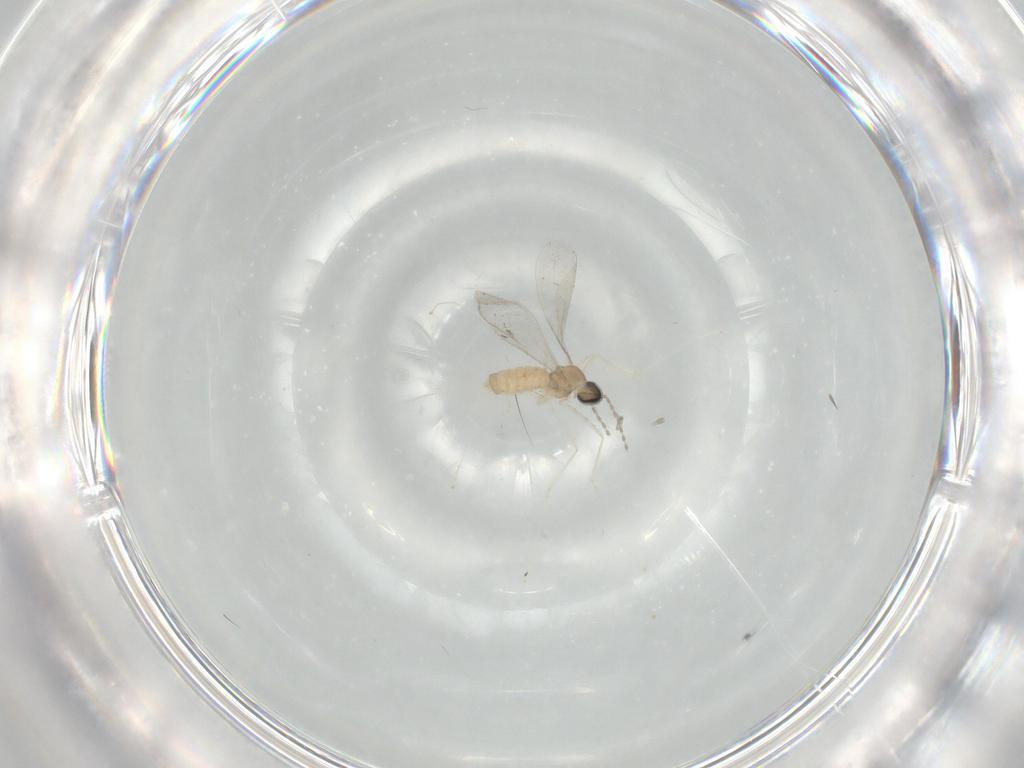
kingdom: Animalia
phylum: Arthropoda
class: Insecta
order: Diptera
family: Cecidomyiidae
